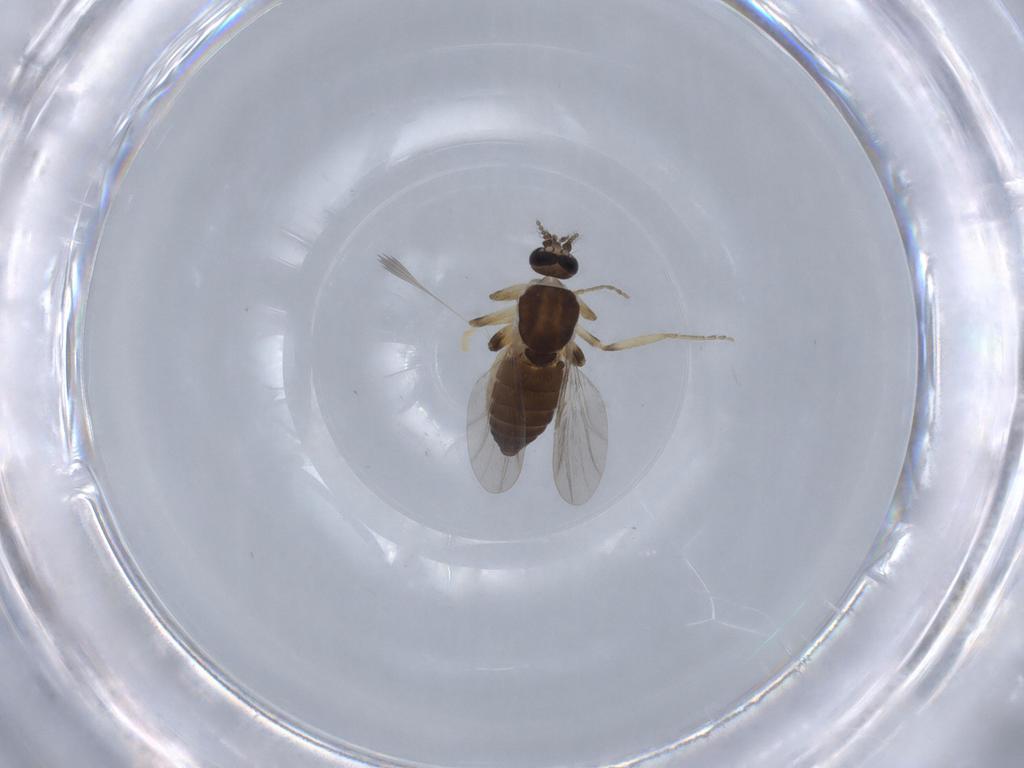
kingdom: Animalia
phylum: Arthropoda
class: Insecta
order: Diptera
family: Ceratopogonidae
